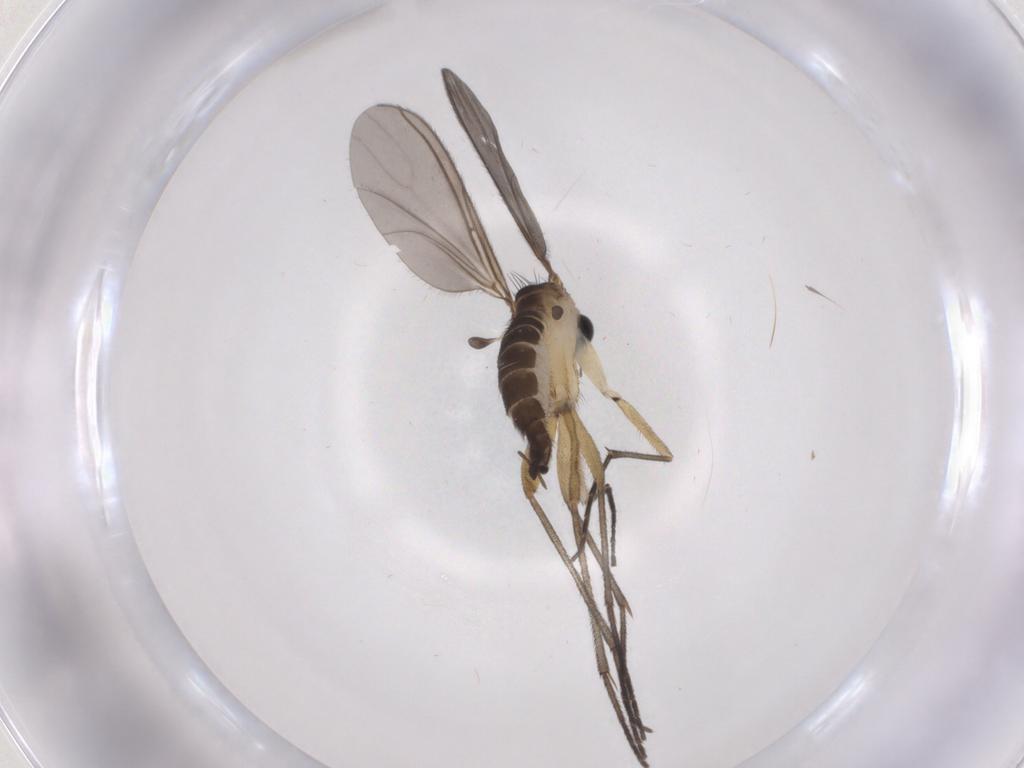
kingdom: Animalia
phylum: Arthropoda
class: Insecta
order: Diptera
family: Sciaridae
